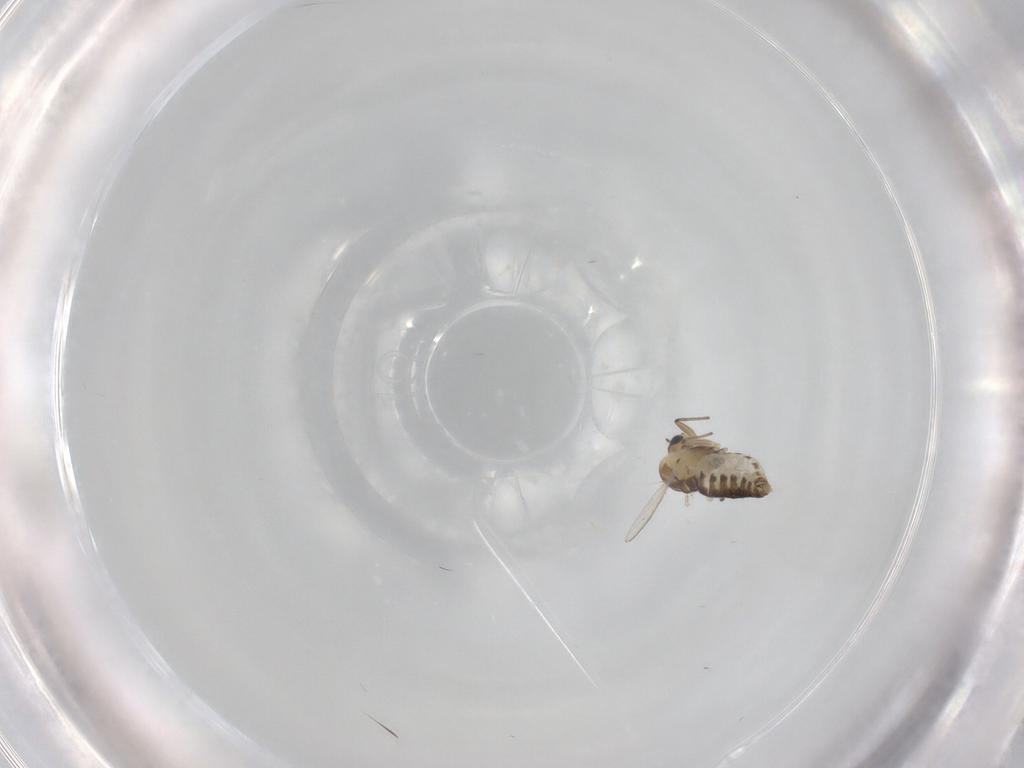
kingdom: Animalia
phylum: Arthropoda
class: Insecta
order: Diptera
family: Chironomidae
